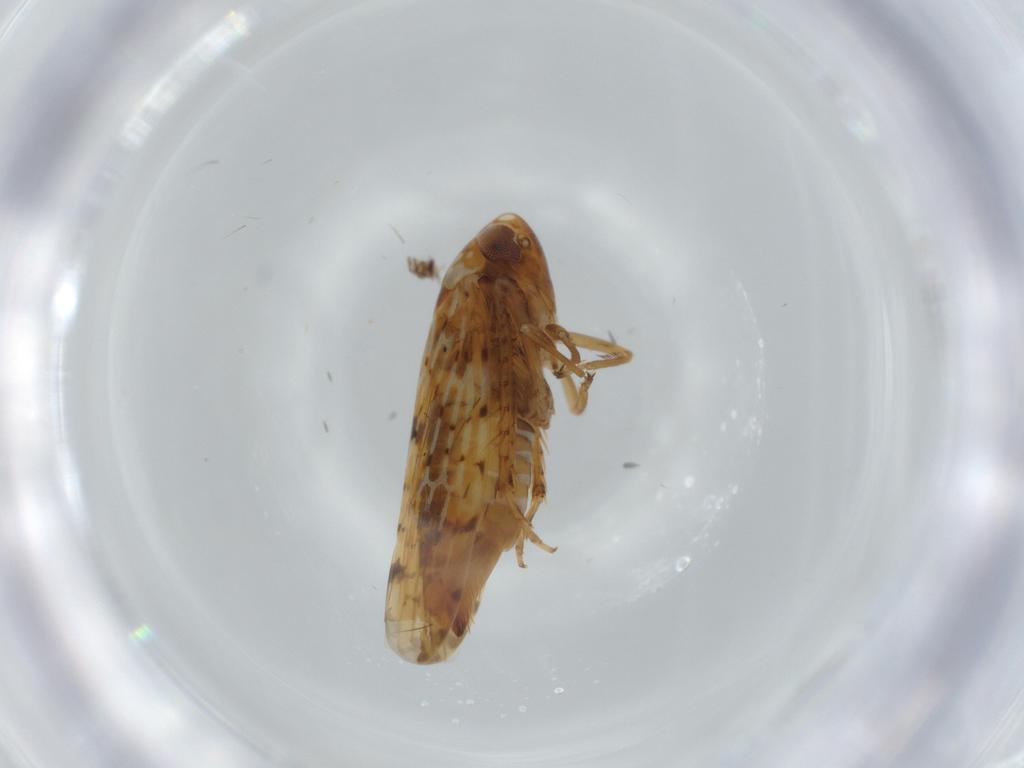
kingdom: Animalia
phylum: Arthropoda
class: Insecta
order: Hemiptera
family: Cicadellidae
